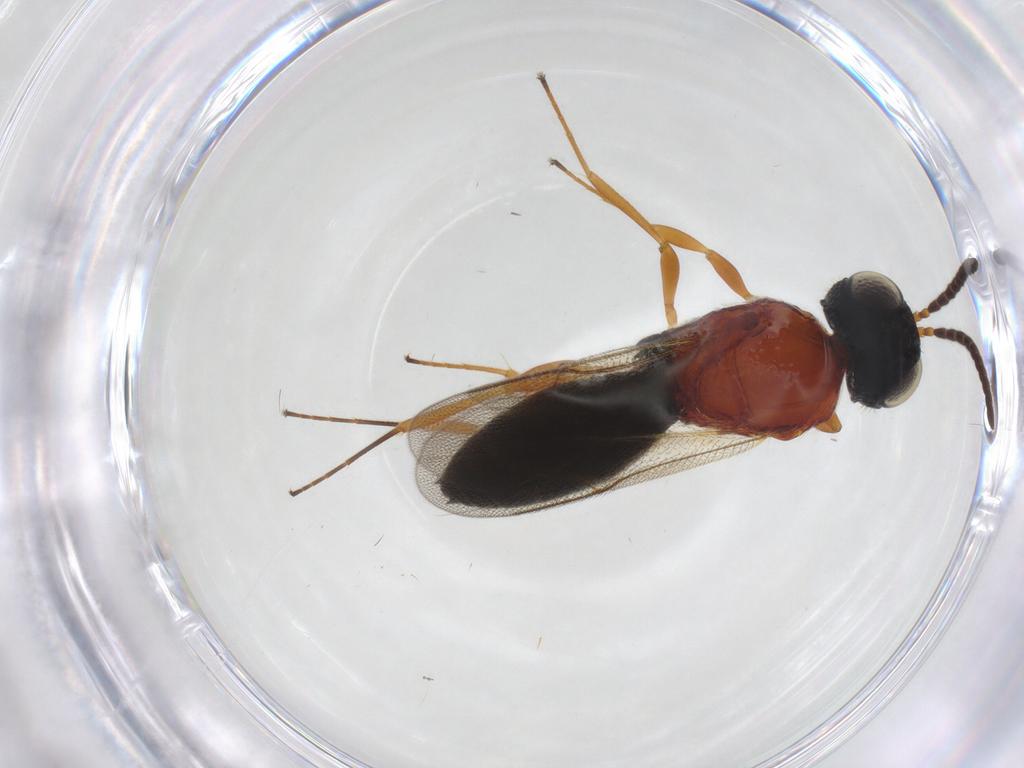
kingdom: Animalia
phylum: Arthropoda
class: Insecta
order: Hymenoptera
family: Scelionidae
